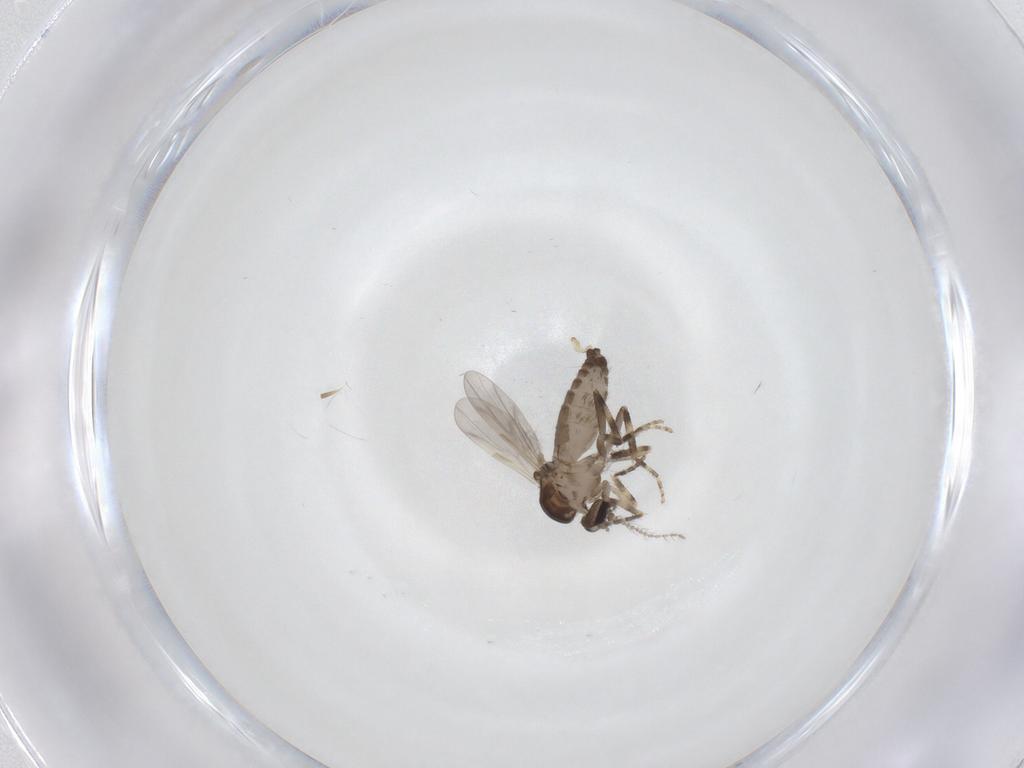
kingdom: Animalia
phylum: Arthropoda
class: Insecta
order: Diptera
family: Ceratopogonidae
